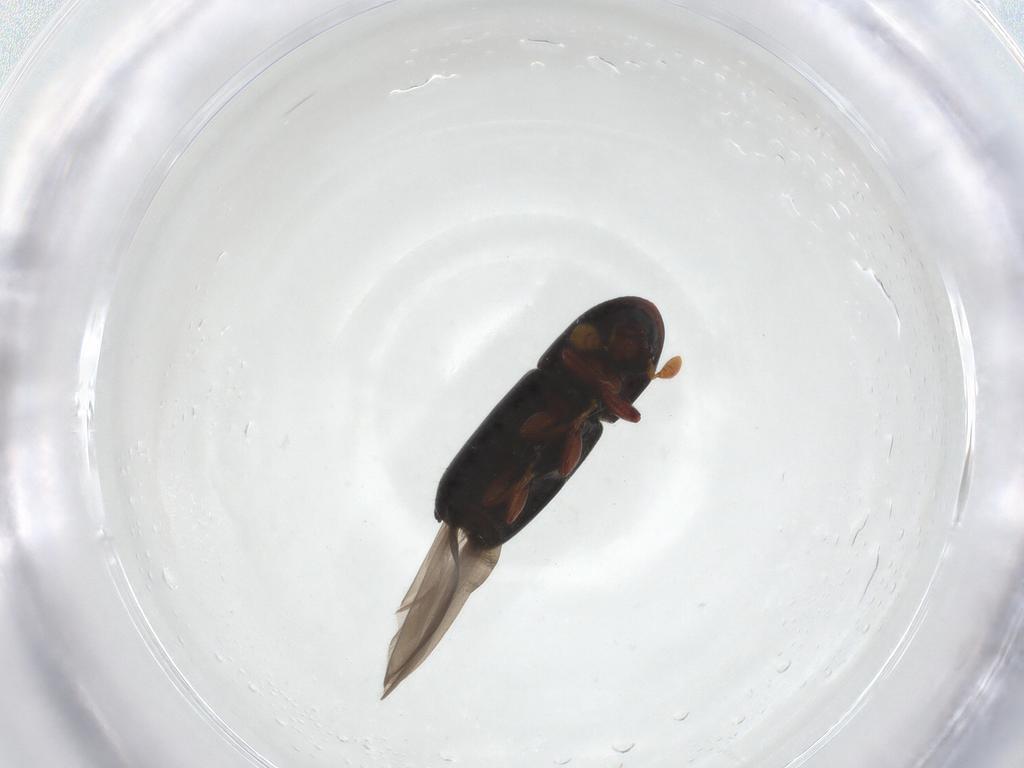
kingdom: Animalia
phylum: Arthropoda
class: Insecta
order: Coleoptera
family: Curculionidae
